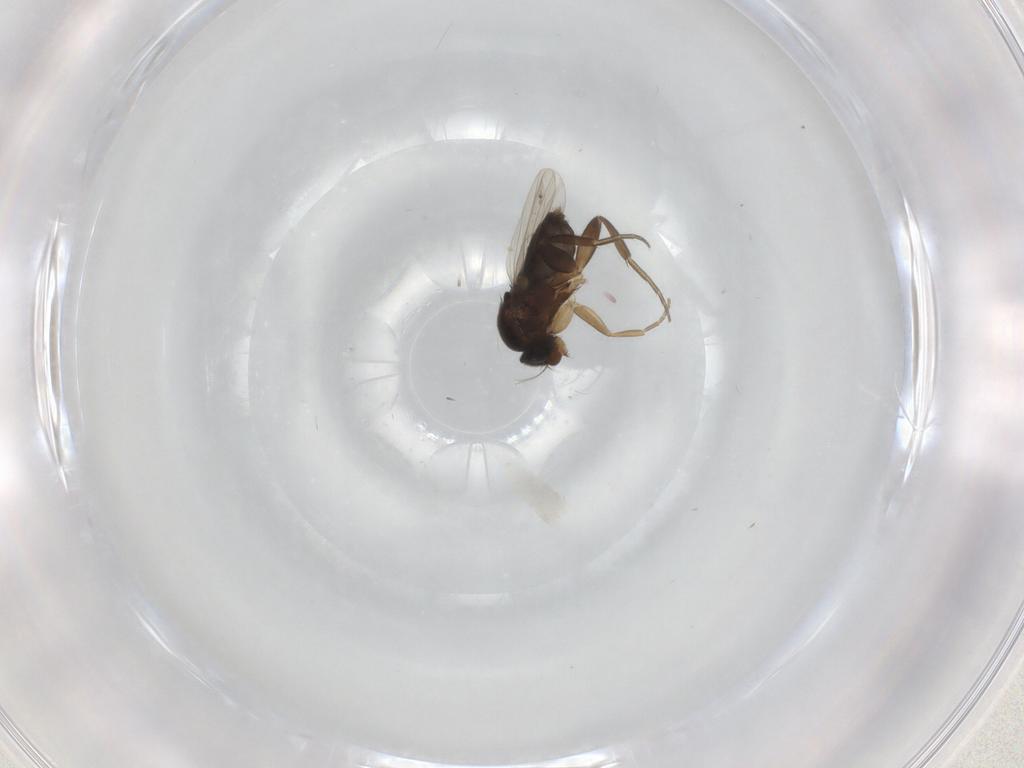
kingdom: Animalia
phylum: Arthropoda
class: Insecta
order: Diptera
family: Phoridae
